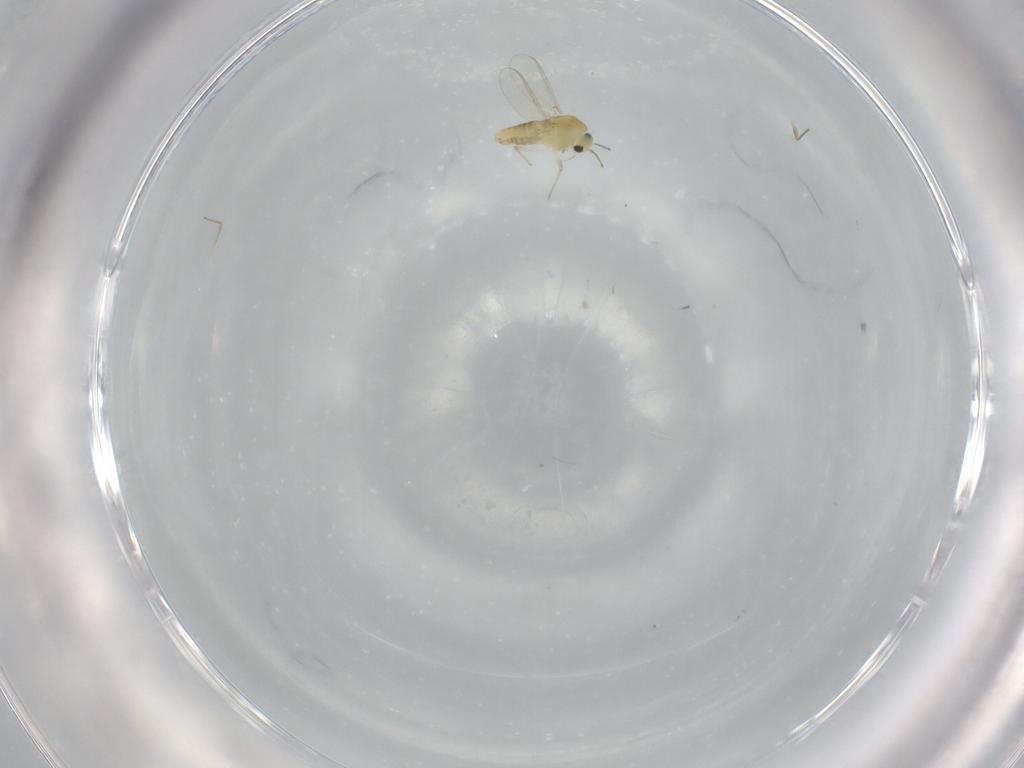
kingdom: Animalia
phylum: Arthropoda
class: Insecta
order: Diptera
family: Chironomidae
